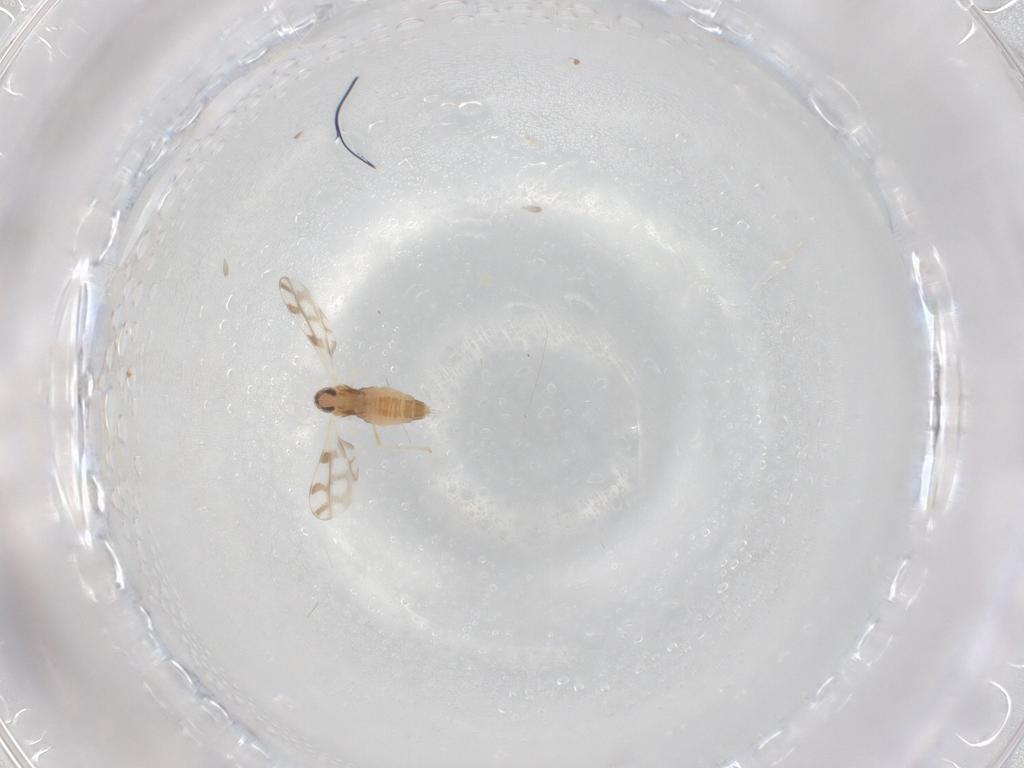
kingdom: Animalia
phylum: Arthropoda
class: Insecta
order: Diptera
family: Cecidomyiidae
